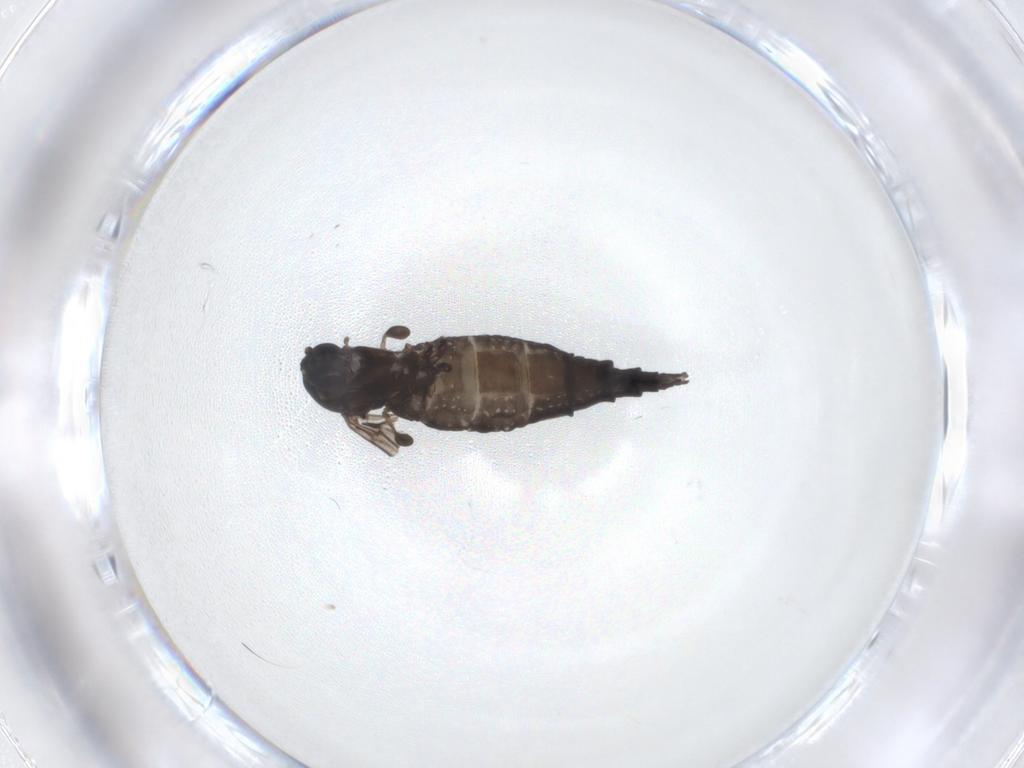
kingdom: Animalia
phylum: Arthropoda
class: Insecta
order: Diptera
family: Sciaridae
